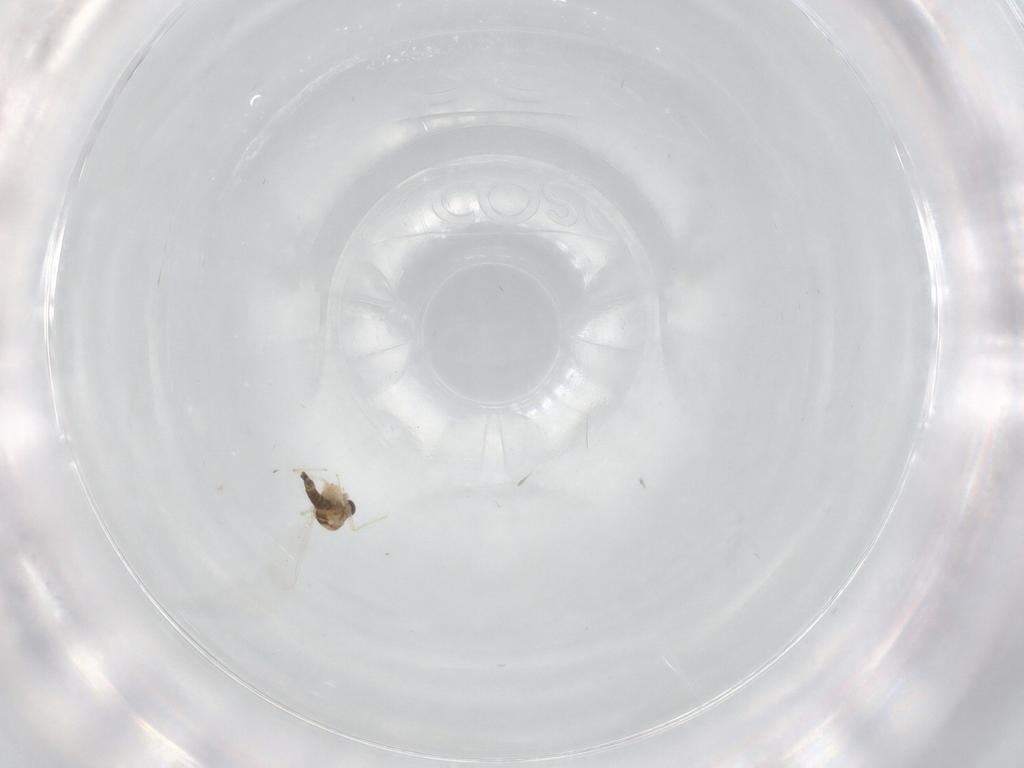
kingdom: Animalia
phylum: Arthropoda
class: Insecta
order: Diptera
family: Chironomidae
